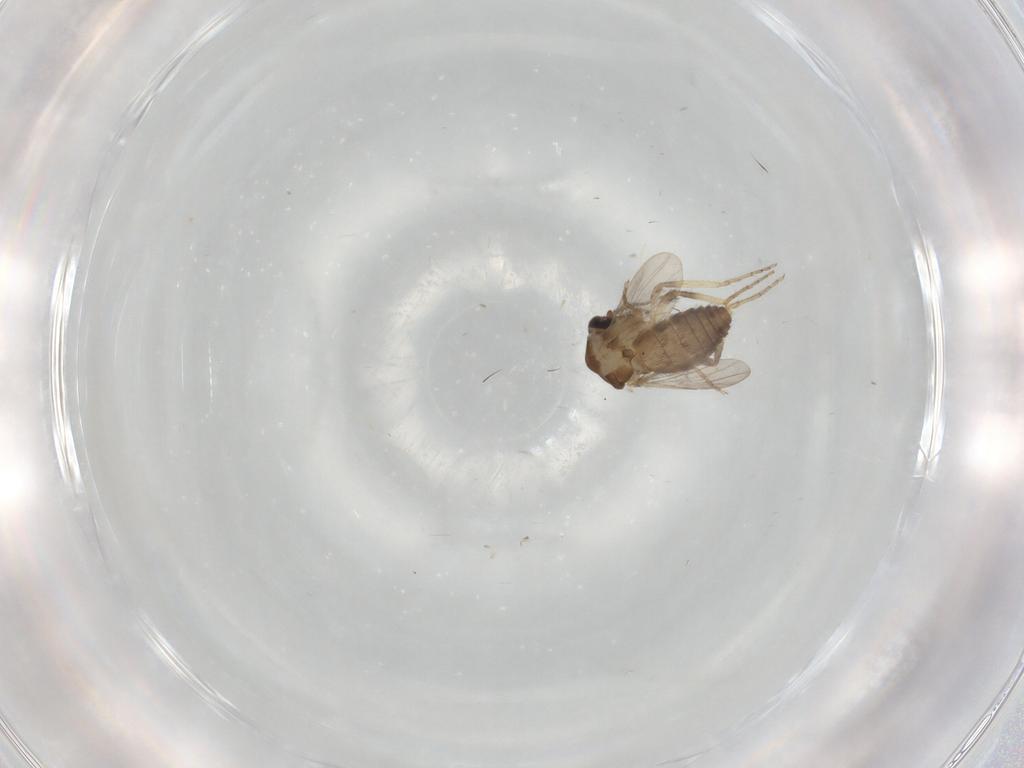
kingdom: Animalia
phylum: Arthropoda
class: Insecta
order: Diptera
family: Ceratopogonidae
